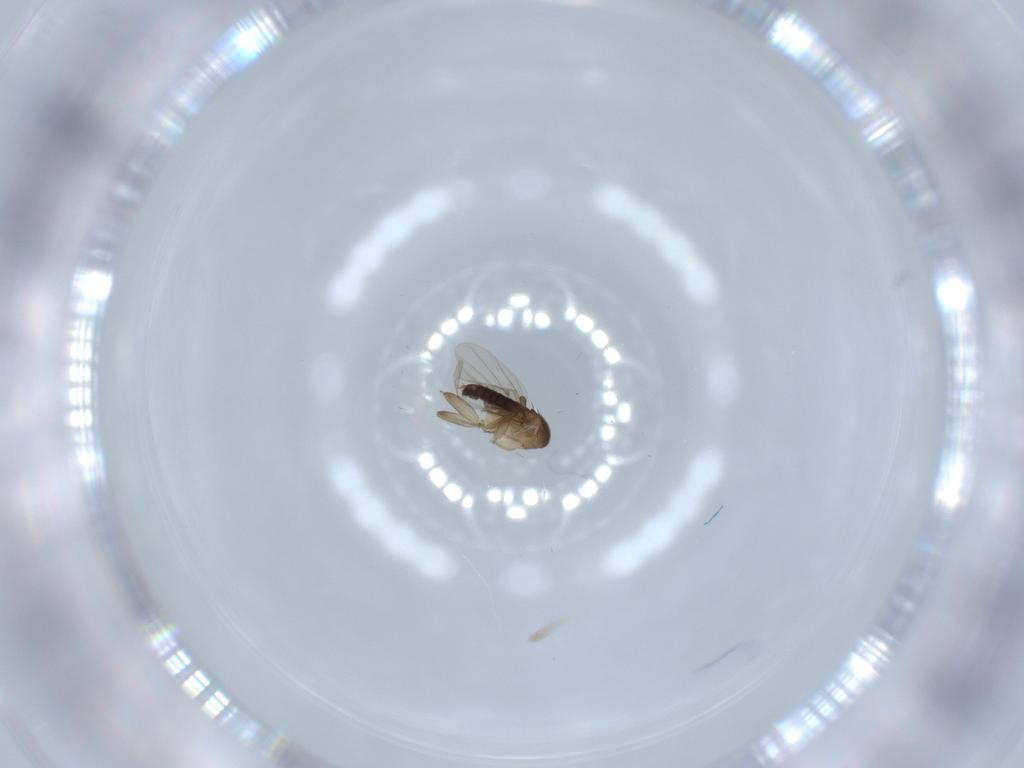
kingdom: Animalia
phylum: Arthropoda
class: Insecta
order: Diptera
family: Phoridae
